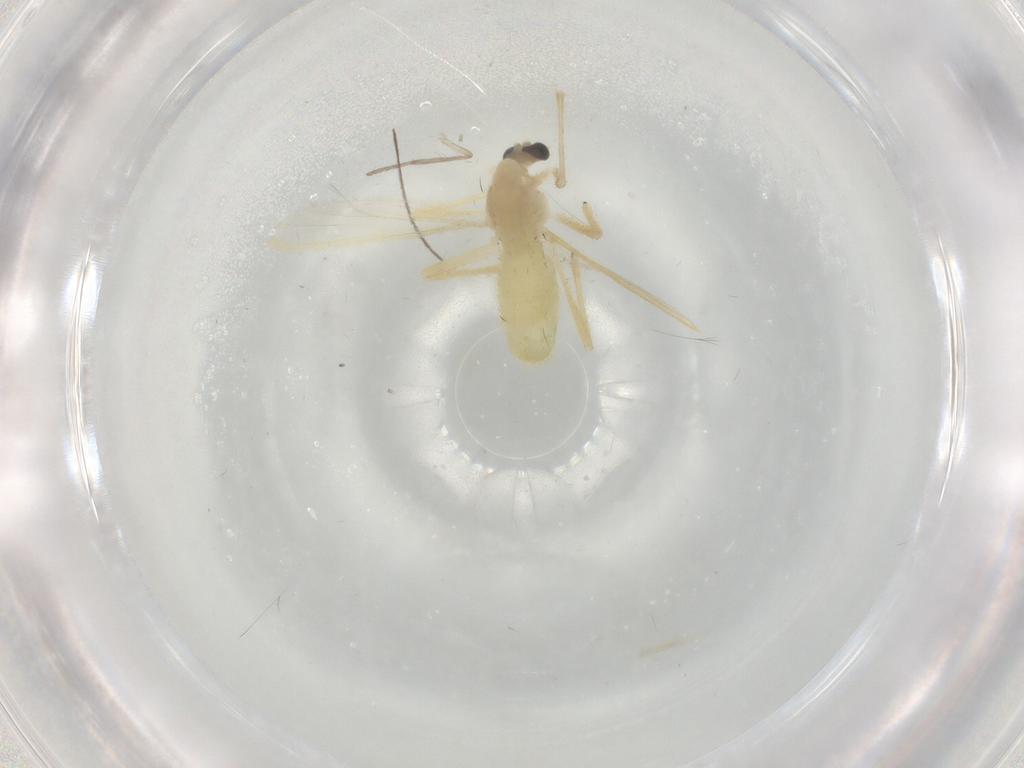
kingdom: Animalia
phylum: Arthropoda
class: Insecta
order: Diptera
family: Chironomidae
